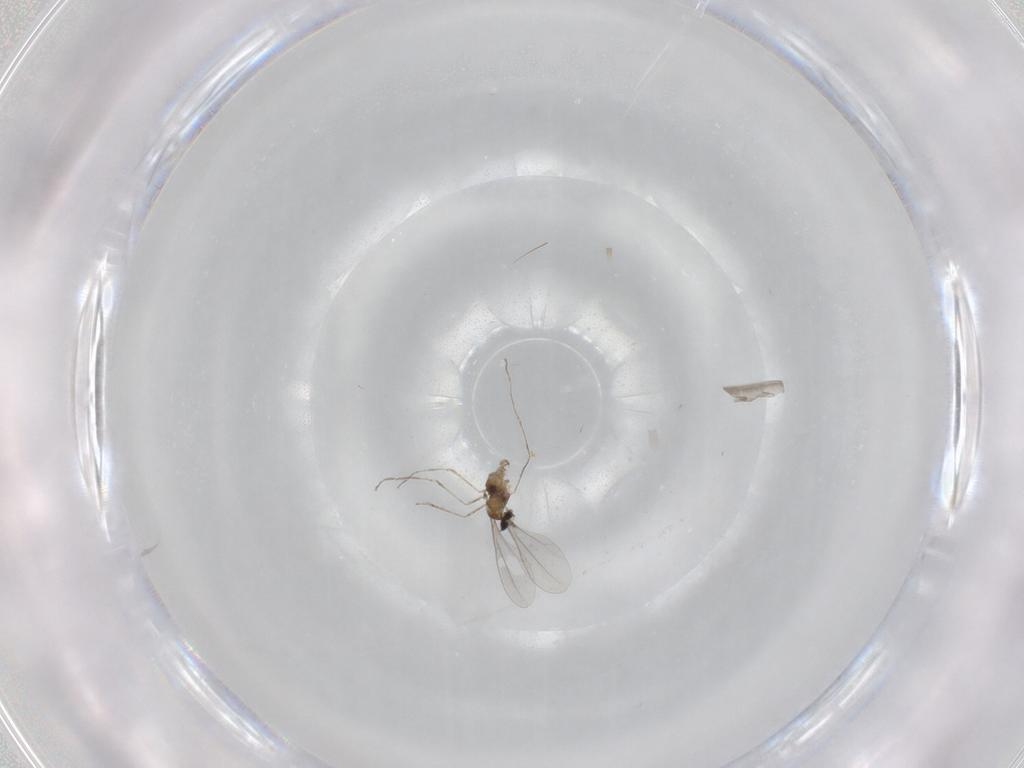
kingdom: Animalia
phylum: Arthropoda
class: Insecta
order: Diptera
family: Cecidomyiidae
